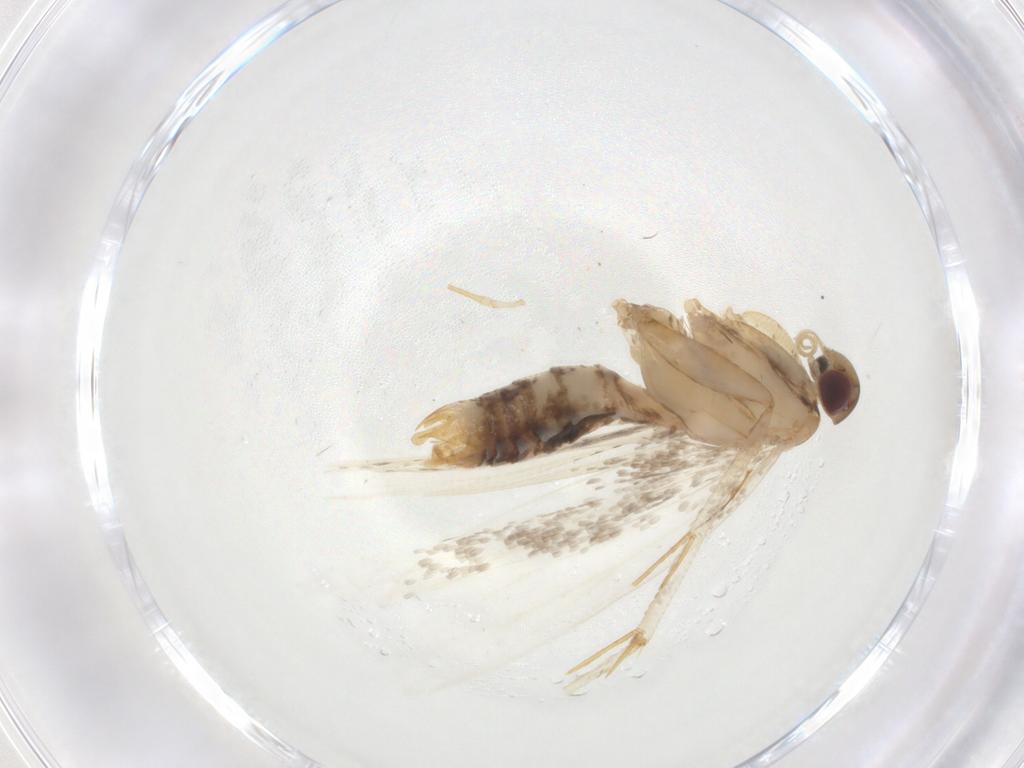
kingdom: Animalia
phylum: Arthropoda
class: Insecta
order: Lepidoptera
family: Gelechiidae
